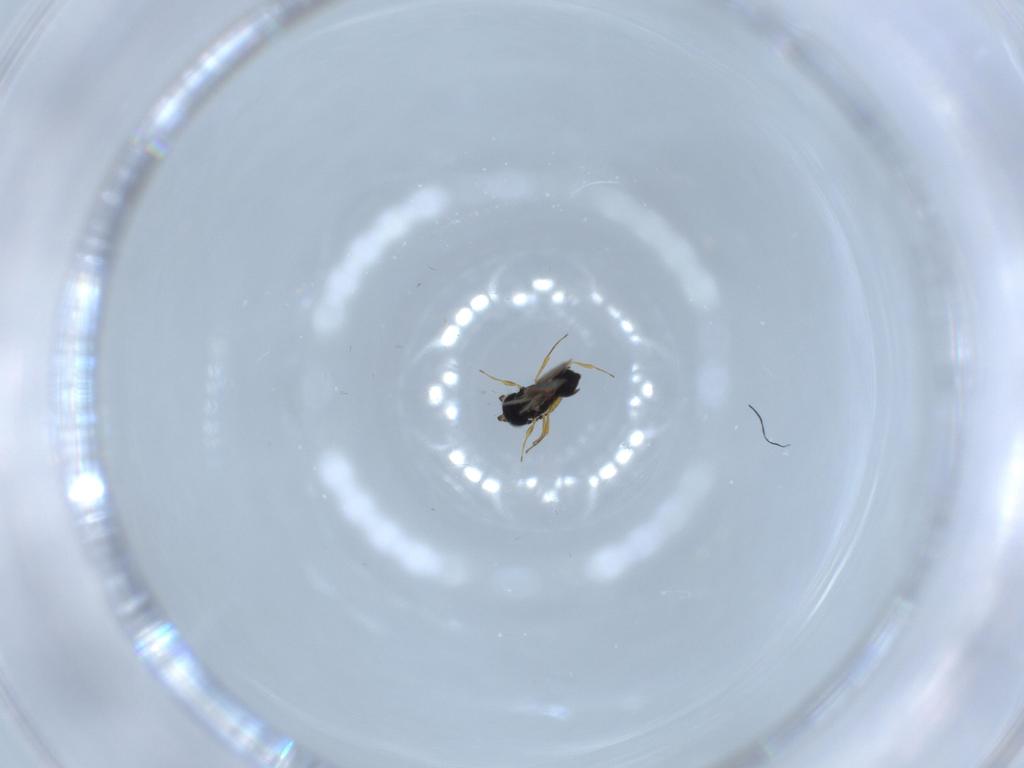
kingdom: Animalia
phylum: Arthropoda
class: Insecta
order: Hymenoptera
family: Scelionidae
